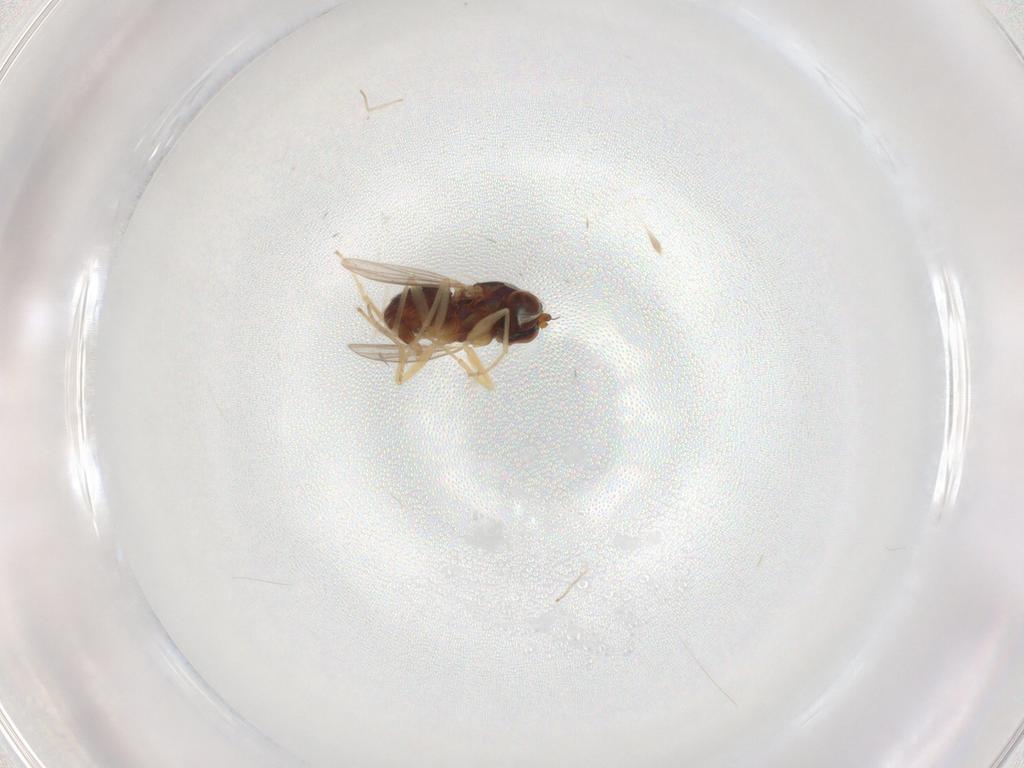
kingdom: Animalia
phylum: Arthropoda
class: Insecta
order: Diptera
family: Dolichopodidae
